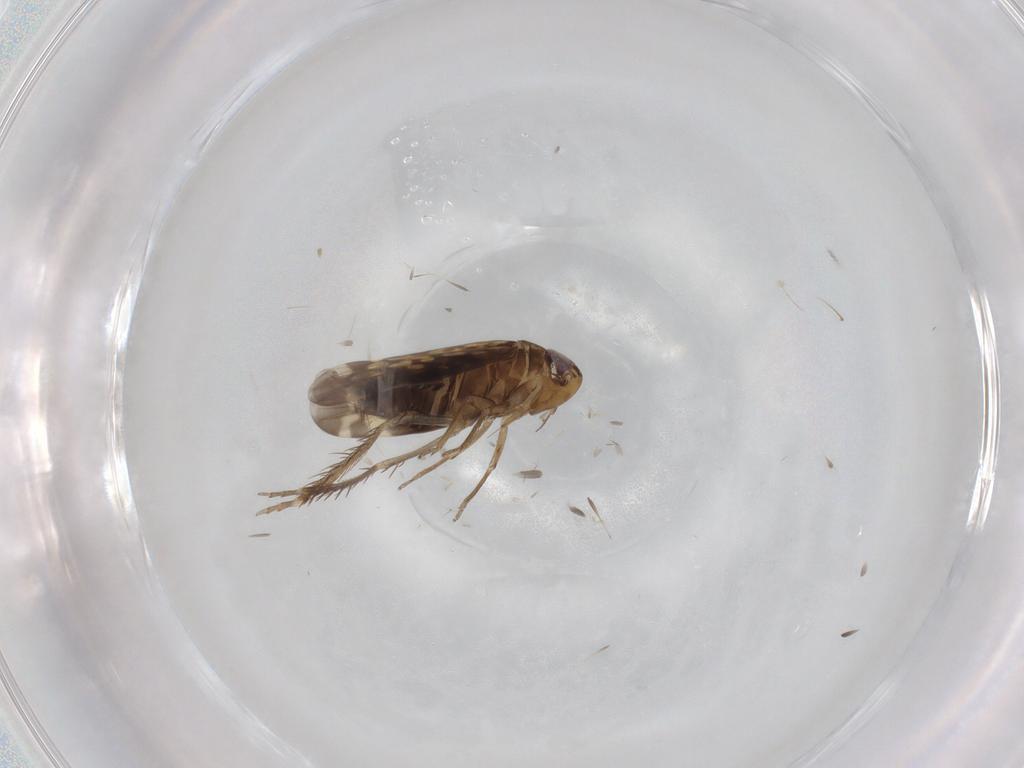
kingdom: Animalia
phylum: Arthropoda
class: Insecta
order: Hemiptera
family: Cicadellidae
